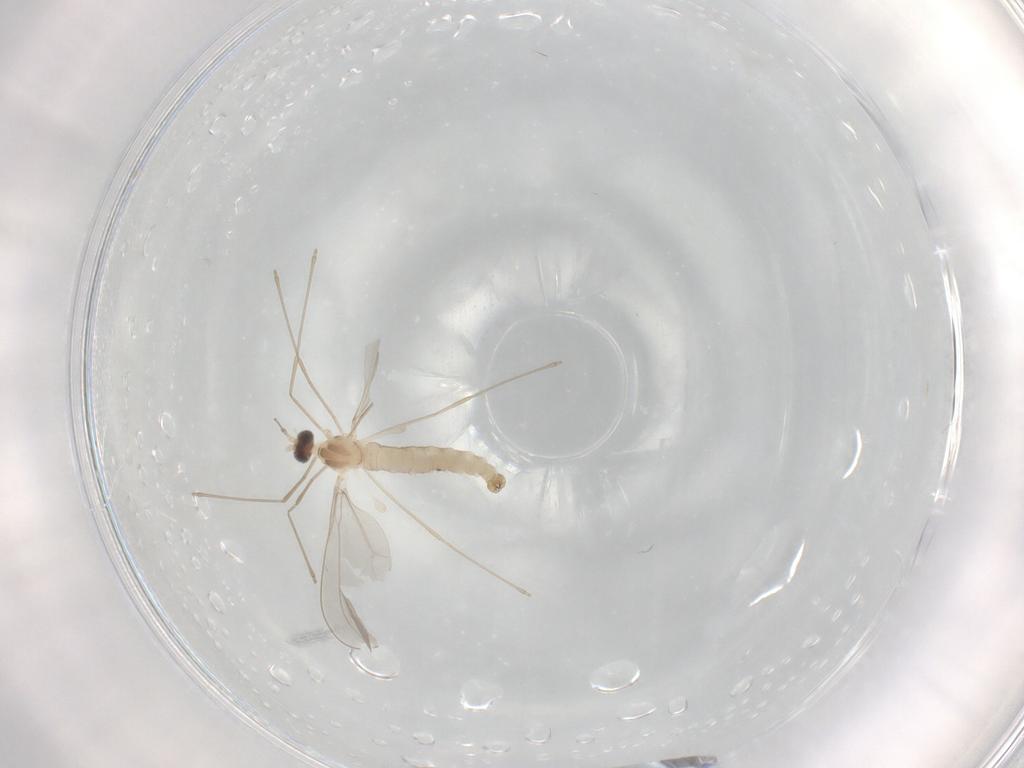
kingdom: Animalia
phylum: Arthropoda
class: Insecta
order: Diptera
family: Cecidomyiidae
